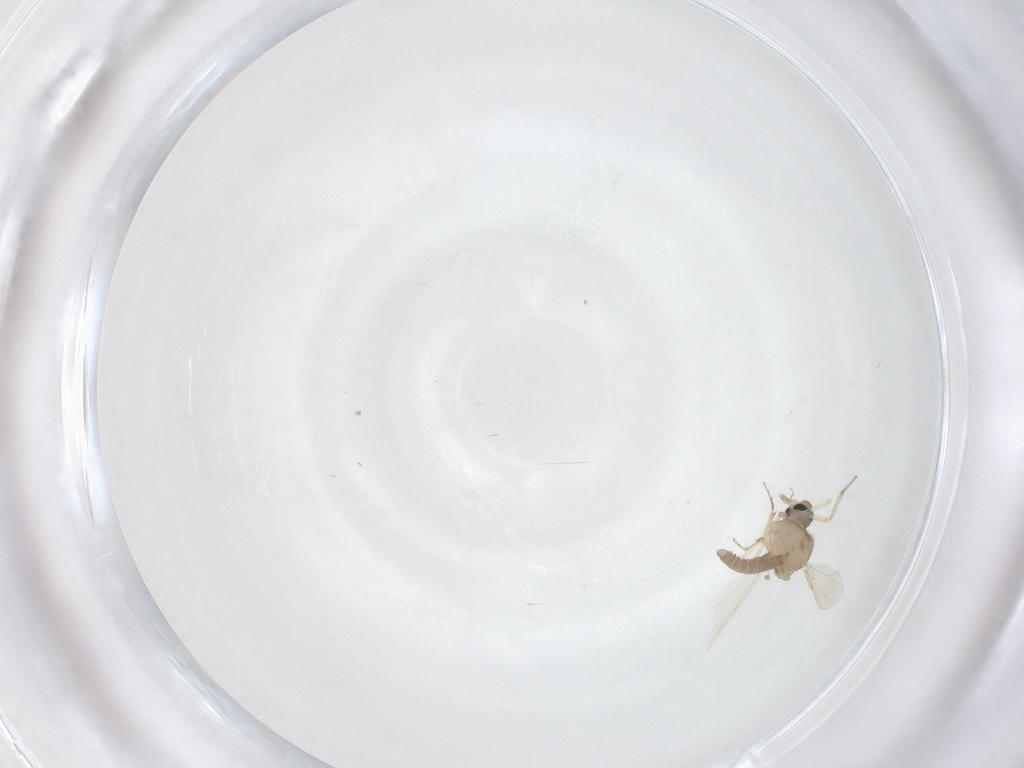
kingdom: Animalia
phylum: Arthropoda
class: Insecta
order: Diptera
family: Ceratopogonidae
